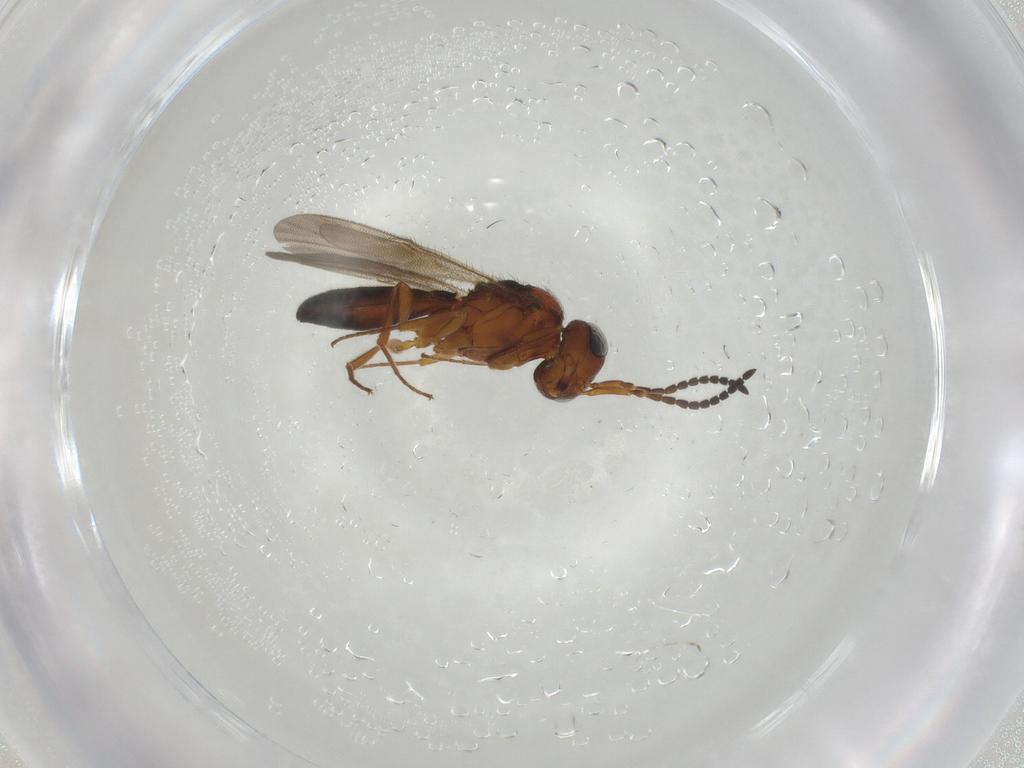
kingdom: Animalia
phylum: Arthropoda
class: Insecta
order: Hymenoptera
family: Scelionidae
